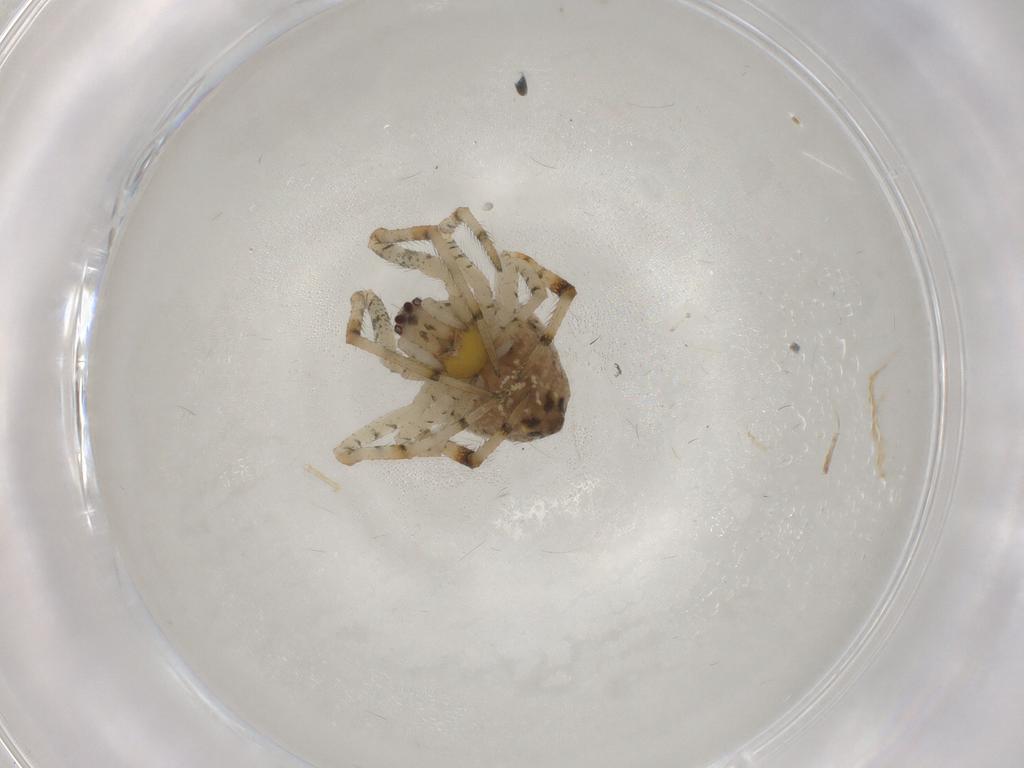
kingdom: Animalia
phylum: Arthropoda
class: Arachnida
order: Araneae
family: Theridiidae
